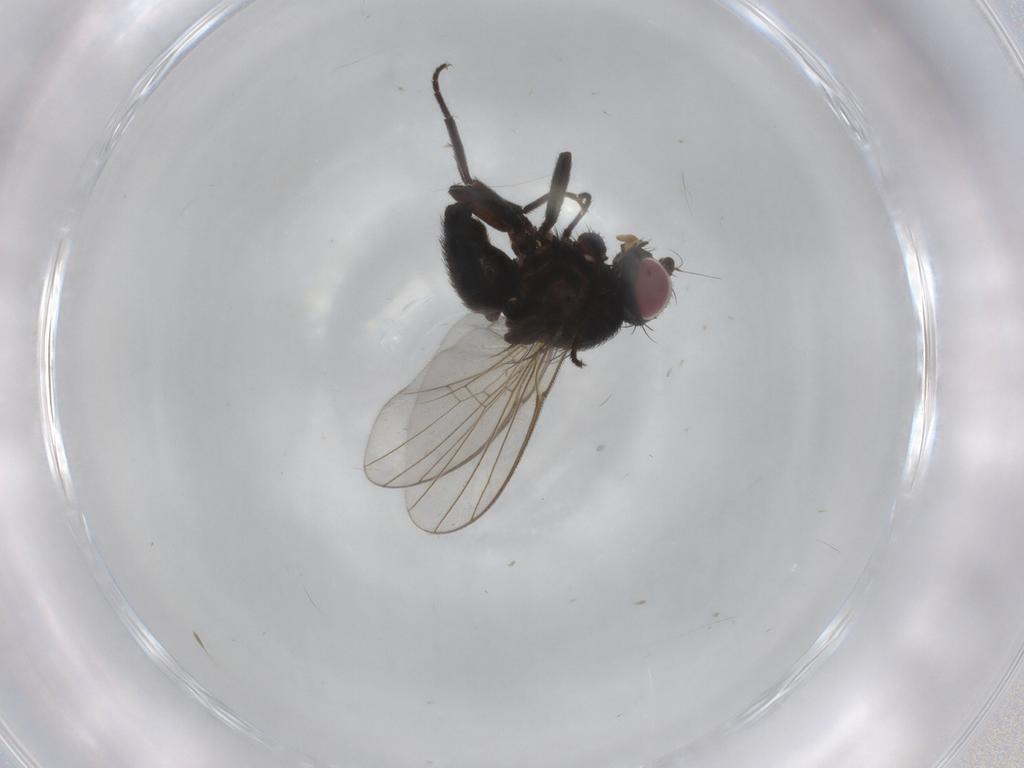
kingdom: Animalia
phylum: Arthropoda
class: Insecta
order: Diptera
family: Agromyzidae
